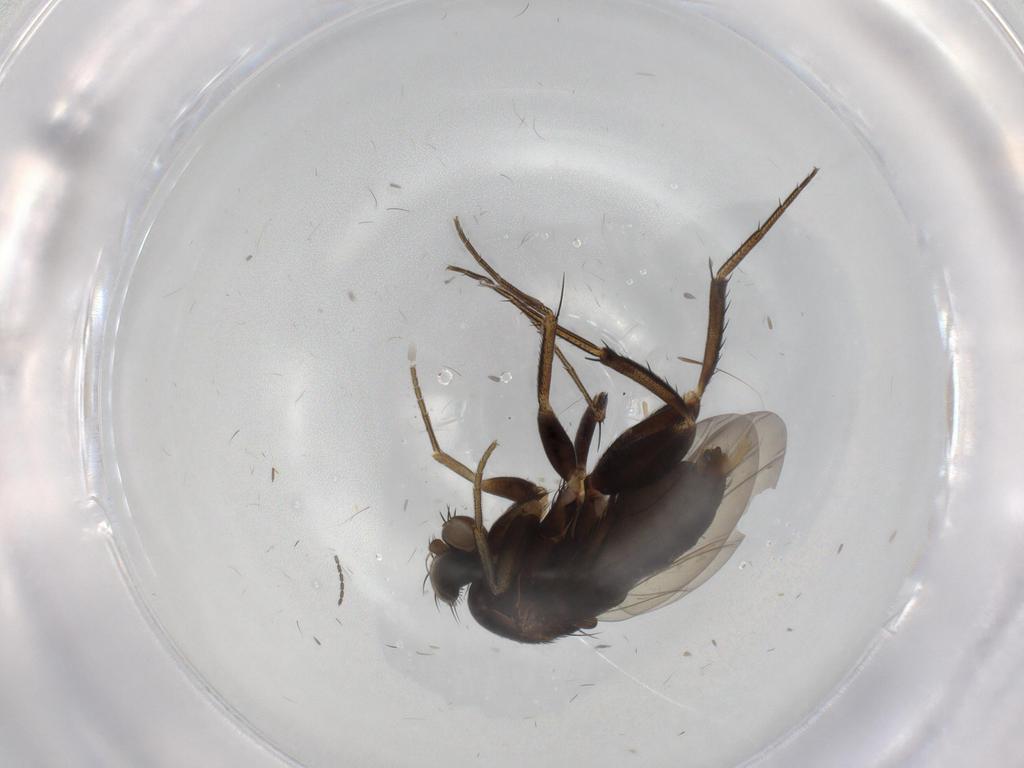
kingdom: Animalia
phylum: Arthropoda
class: Insecta
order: Diptera
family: Phoridae
